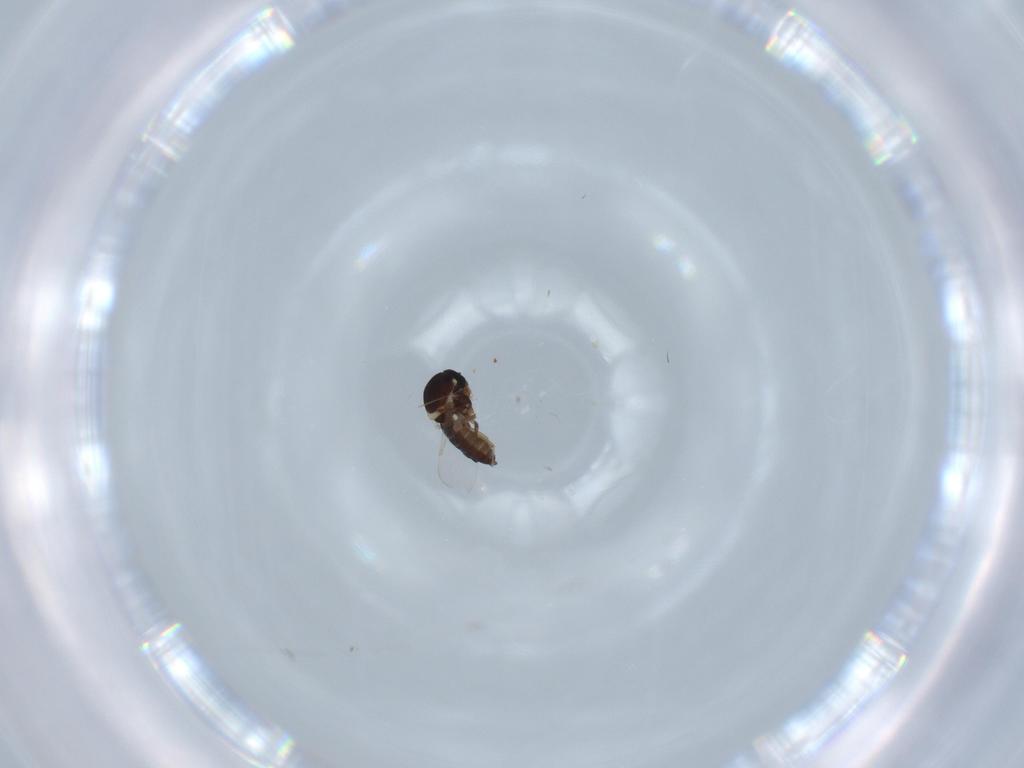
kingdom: Animalia
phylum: Arthropoda
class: Insecta
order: Diptera
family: Ceratopogonidae
